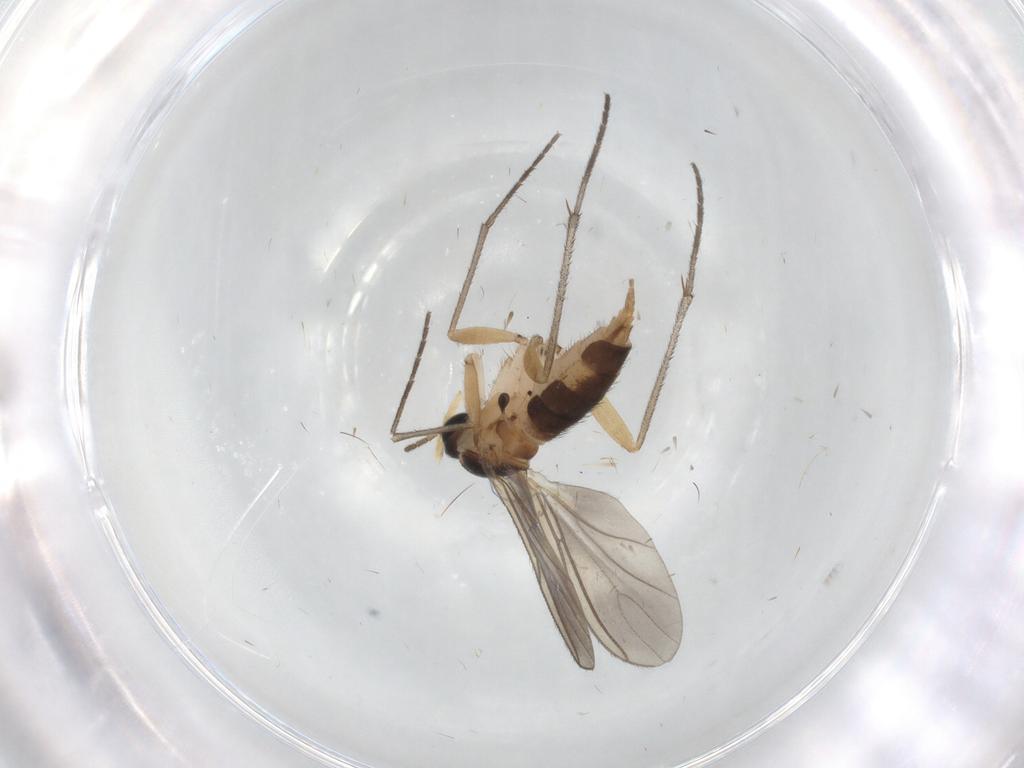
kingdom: Animalia
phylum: Arthropoda
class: Insecta
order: Diptera
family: Sciaridae
